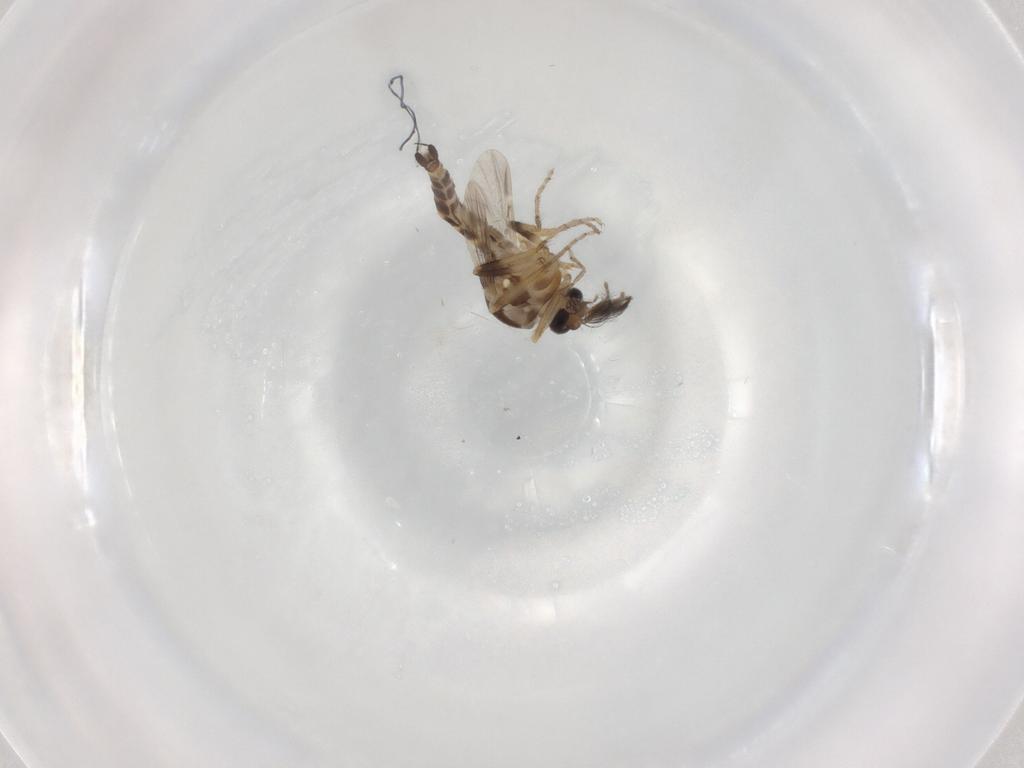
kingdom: Animalia
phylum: Arthropoda
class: Insecta
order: Diptera
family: Ceratopogonidae
